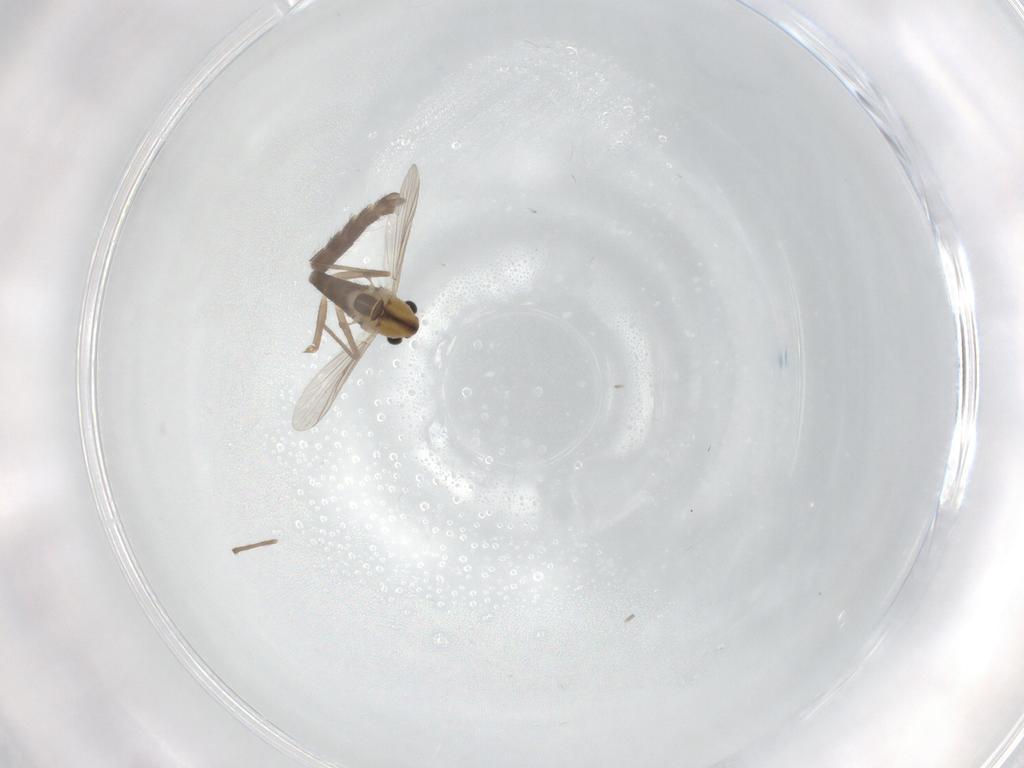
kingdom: Animalia
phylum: Arthropoda
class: Insecta
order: Diptera
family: Chironomidae
